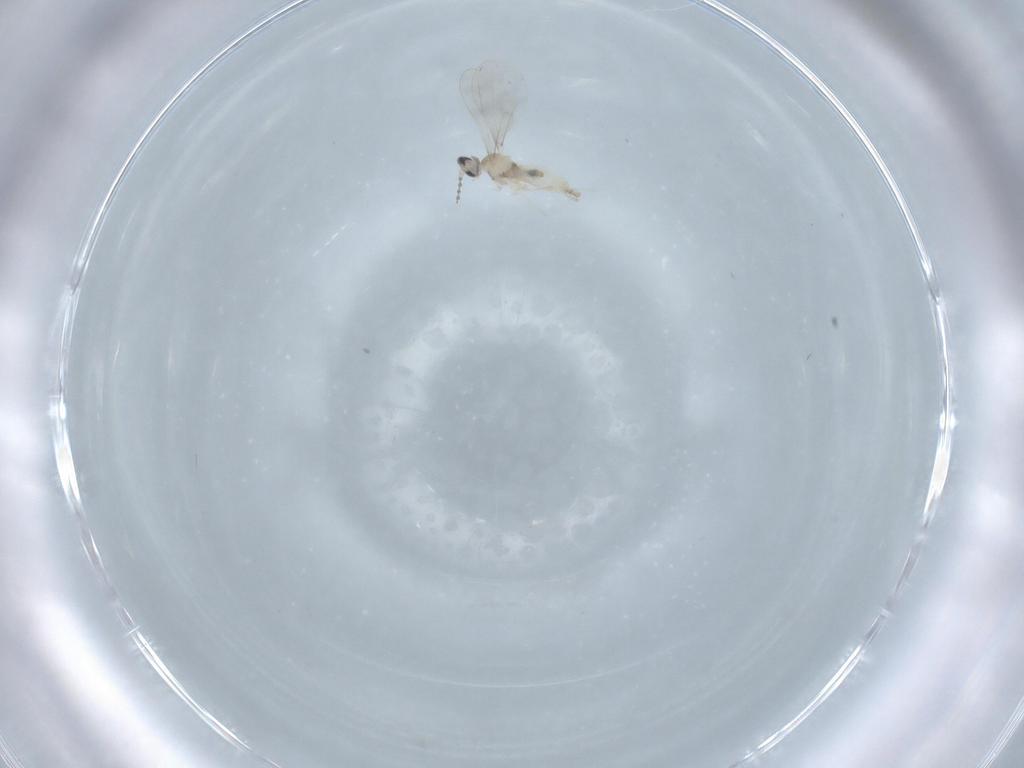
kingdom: Animalia
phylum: Arthropoda
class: Insecta
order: Diptera
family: Cecidomyiidae
